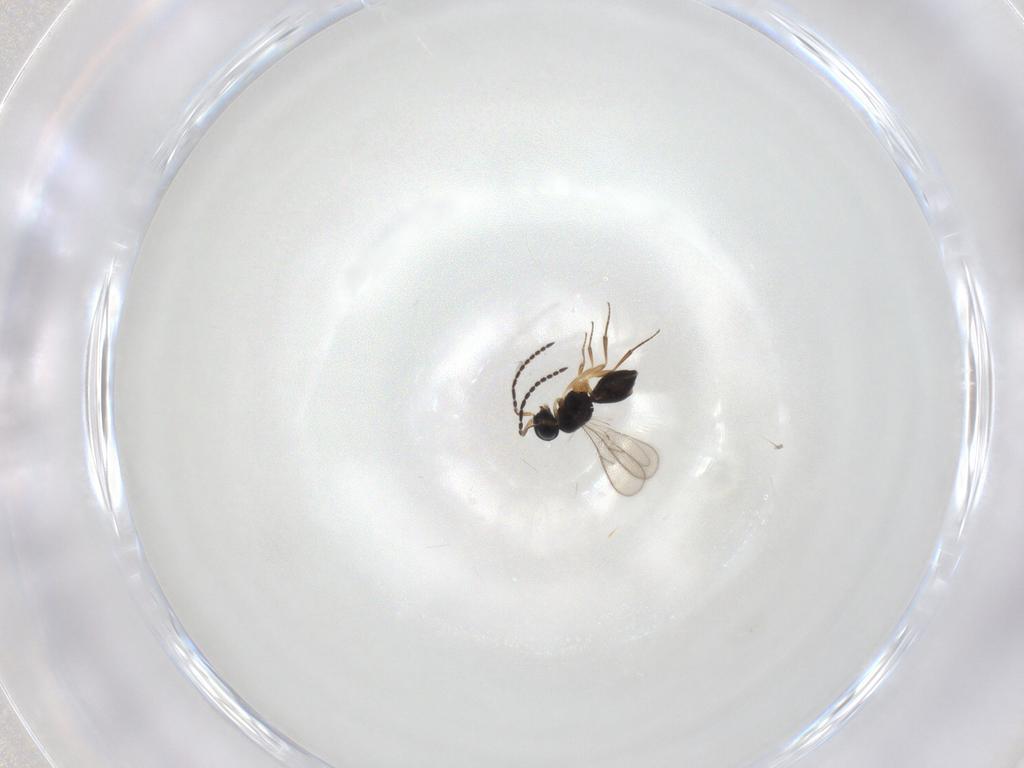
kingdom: Animalia
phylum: Arthropoda
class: Insecta
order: Hymenoptera
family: Scelionidae
